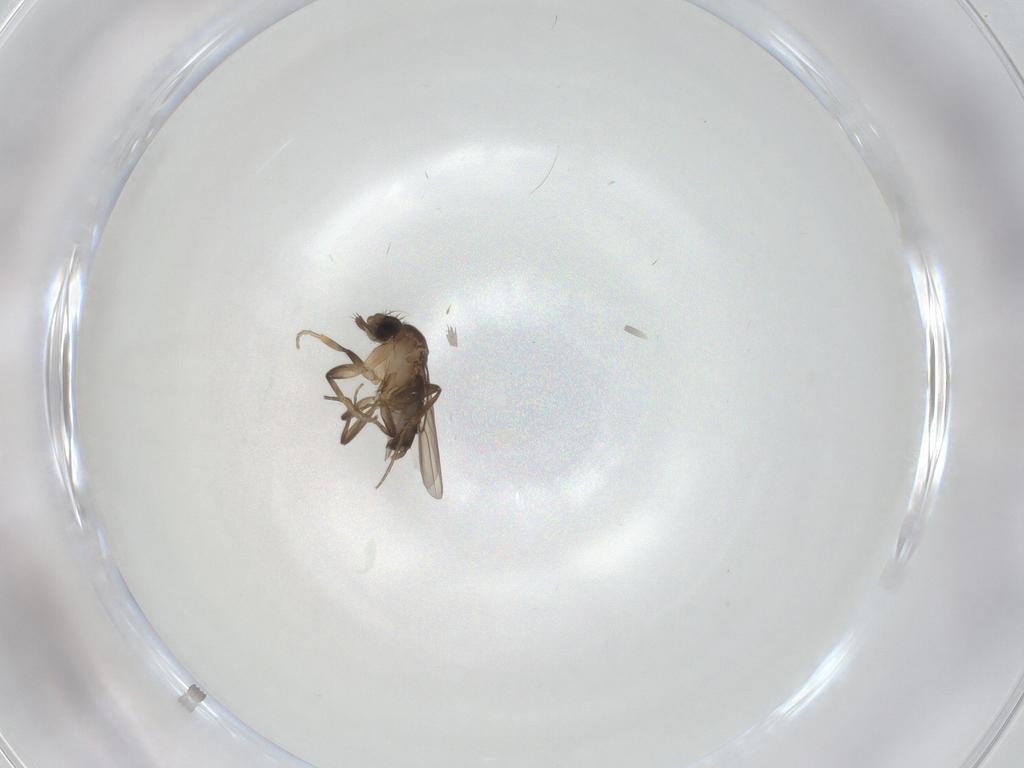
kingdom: Animalia
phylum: Arthropoda
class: Insecta
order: Diptera
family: Phoridae
